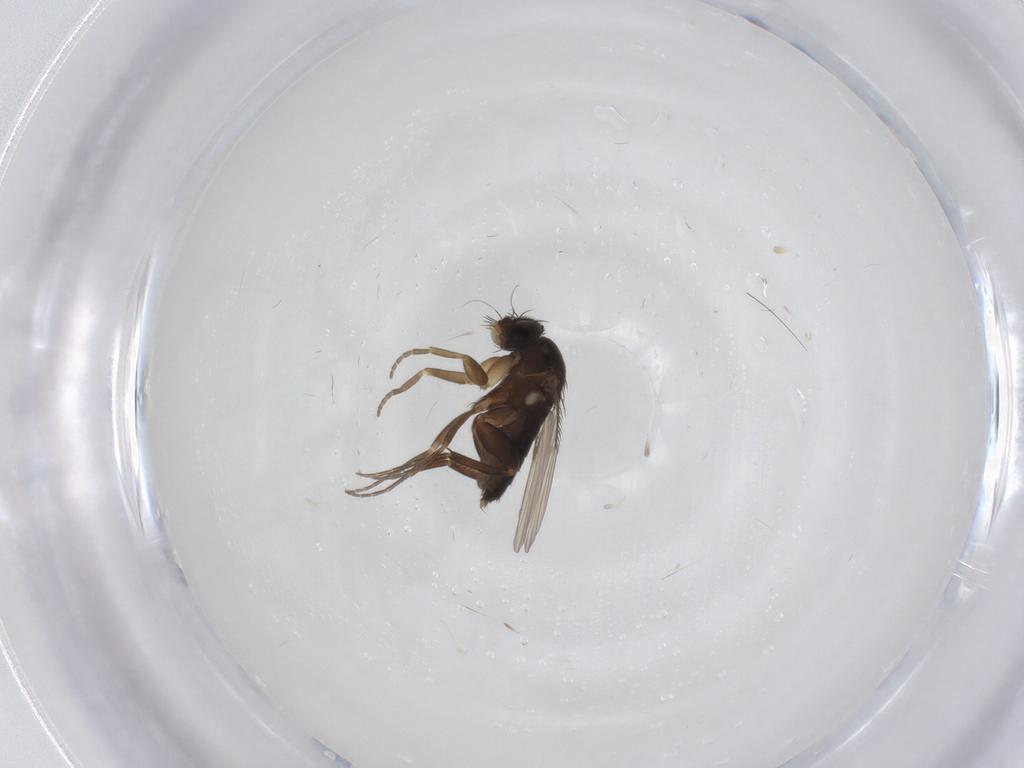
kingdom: Animalia
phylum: Arthropoda
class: Insecta
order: Diptera
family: Phoridae
